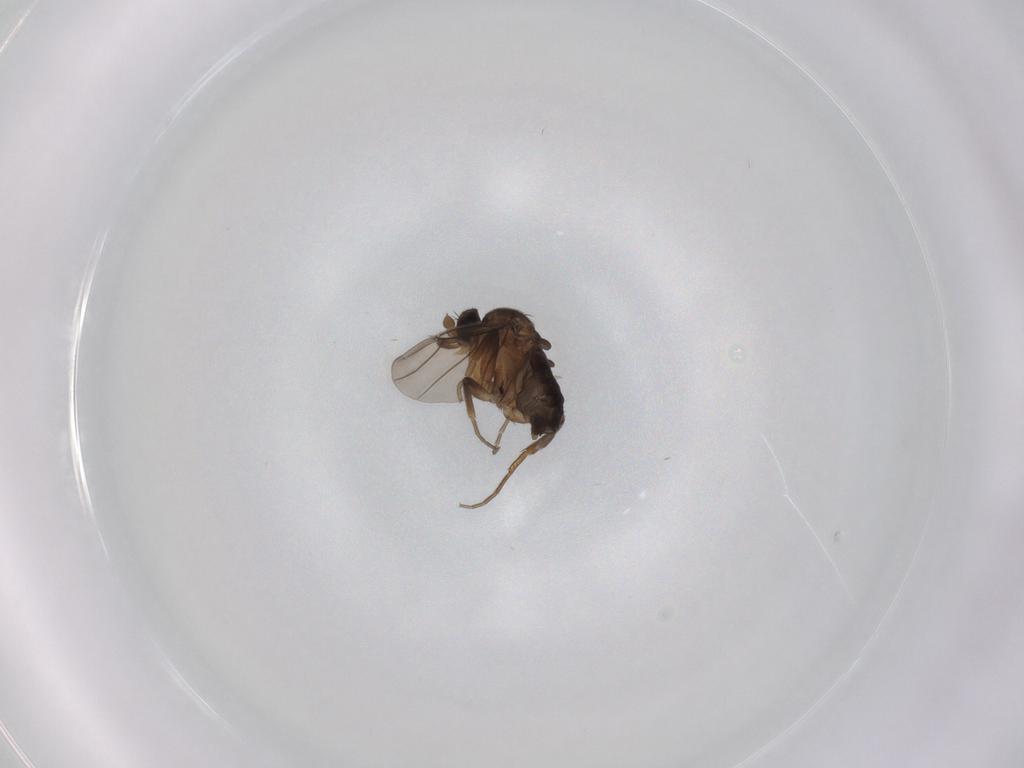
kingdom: Animalia
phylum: Arthropoda
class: Insecta
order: Diptera
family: Phoridae
